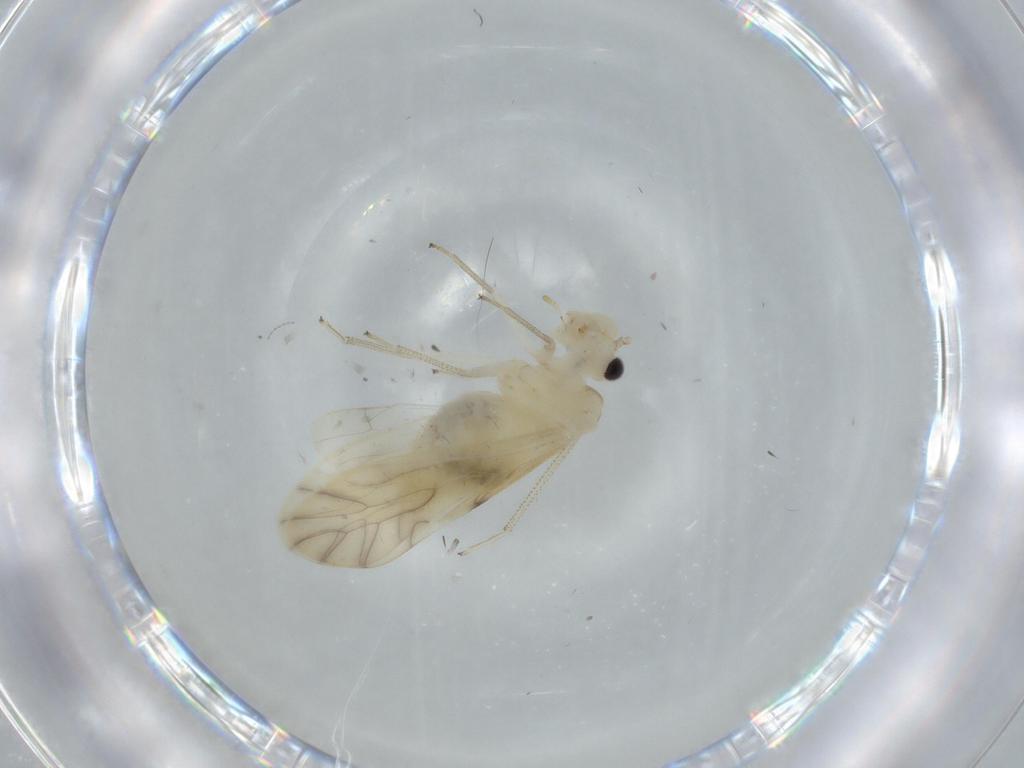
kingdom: Animalia
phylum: Arthropoda
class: Insecta
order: Psocodea
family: Caeciliusidae
